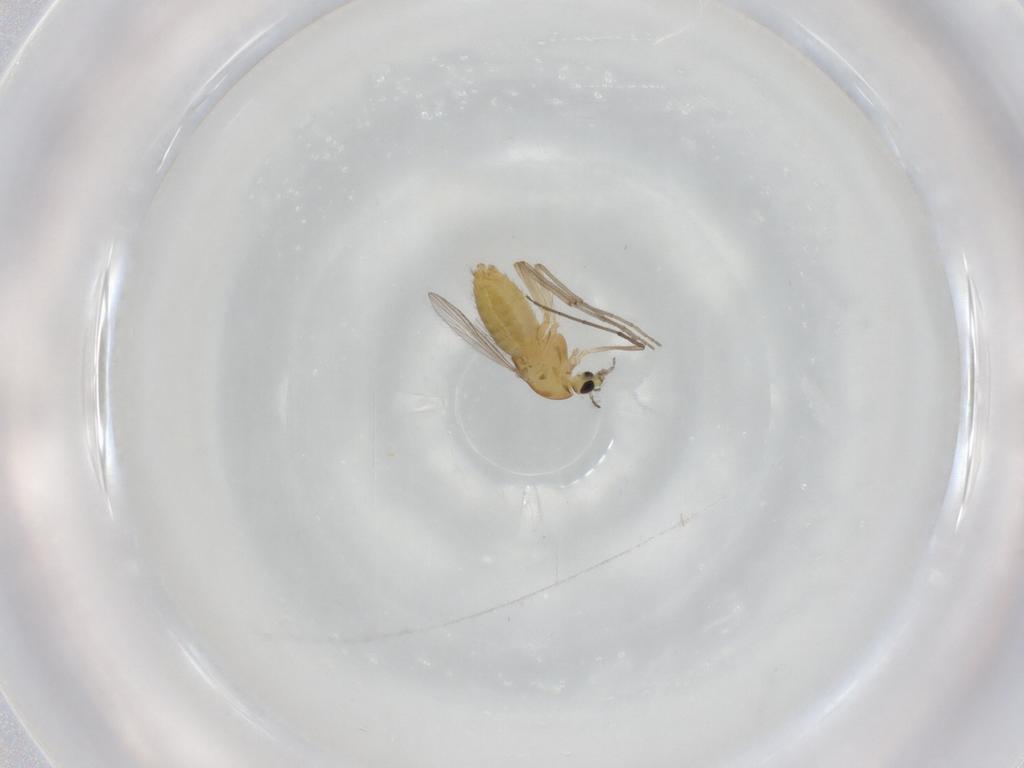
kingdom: Animalia
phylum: Arthropoda
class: Insecta
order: Diptera
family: Chironomidae
